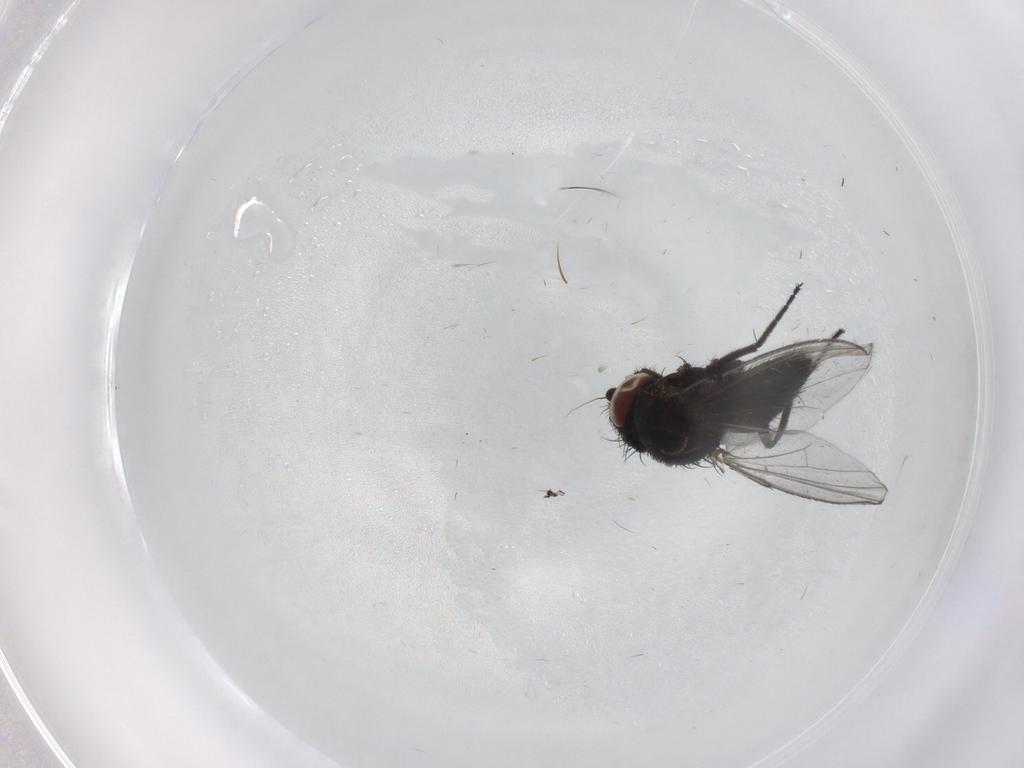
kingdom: Animalia
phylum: Arthropoda
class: Insecta
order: Diptera
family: Milichiidae
